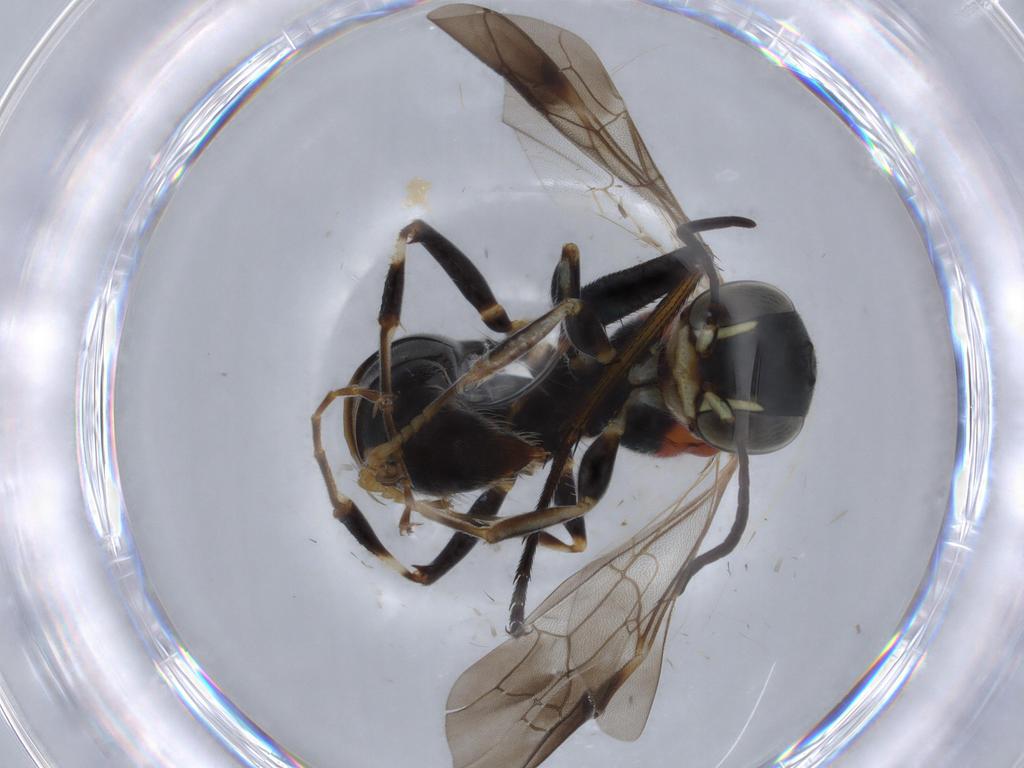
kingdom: Animalia
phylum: Arthropoda
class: Insecta
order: Hymenoptera
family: Bembicidae
